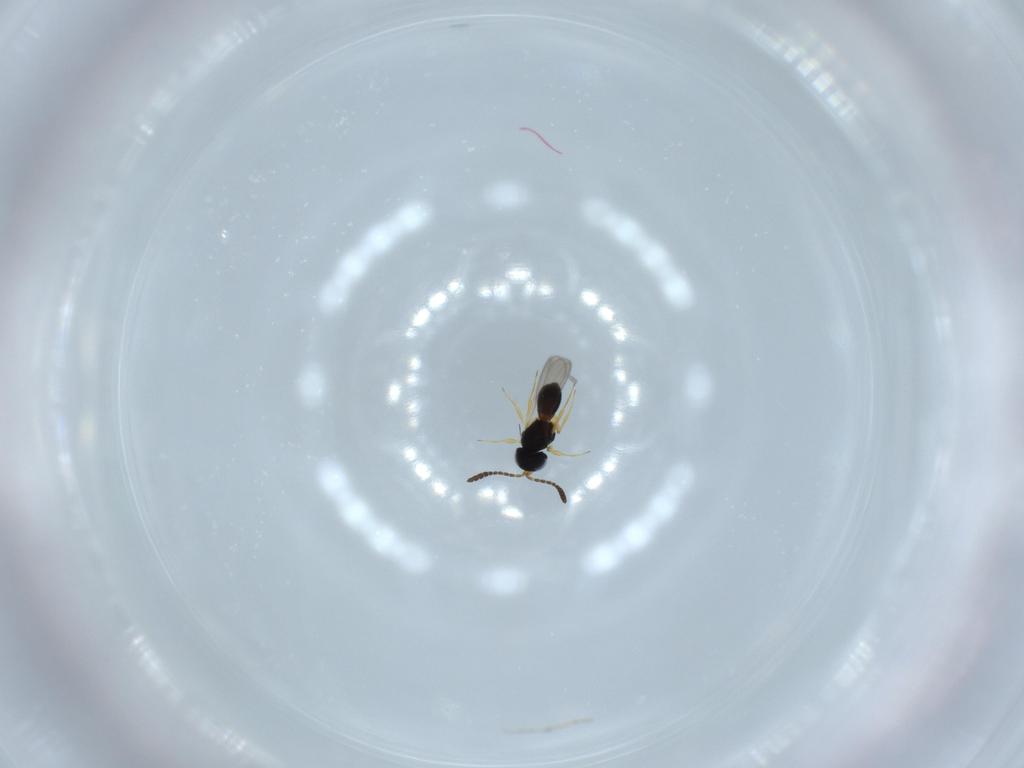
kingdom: Animalia
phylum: Arthropoda
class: Insecta
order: Hymenoptera
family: Scelionidae
